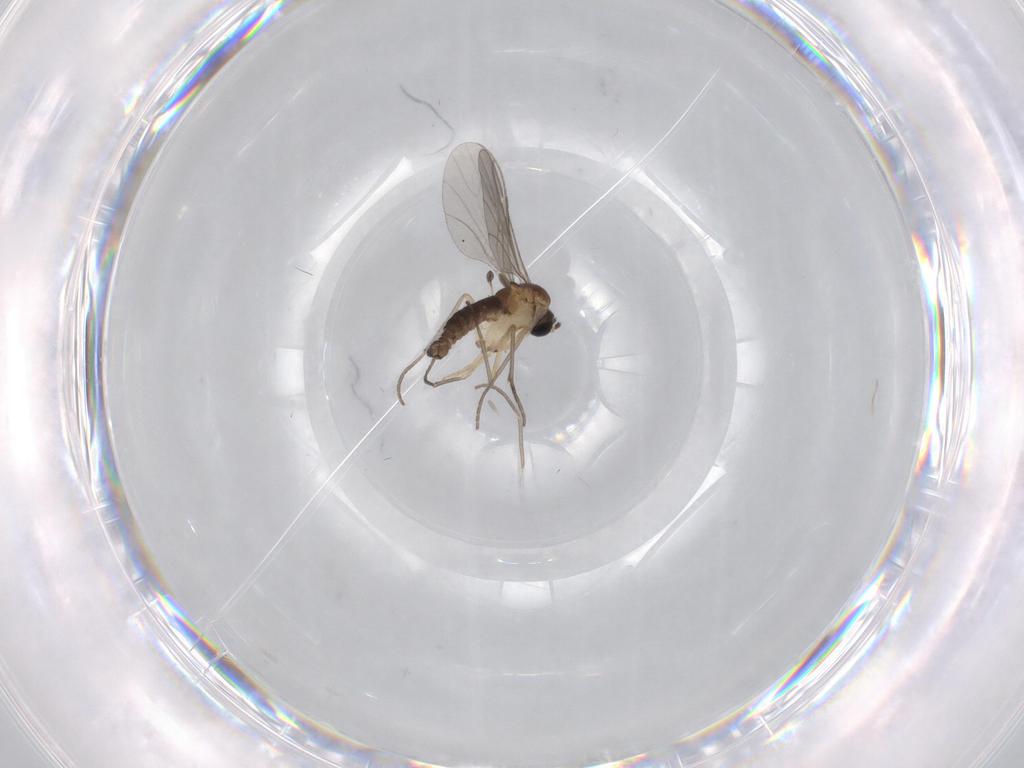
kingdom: Animalia
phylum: Arthropoda
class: Insecta
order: Diptera
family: Sciaridae
